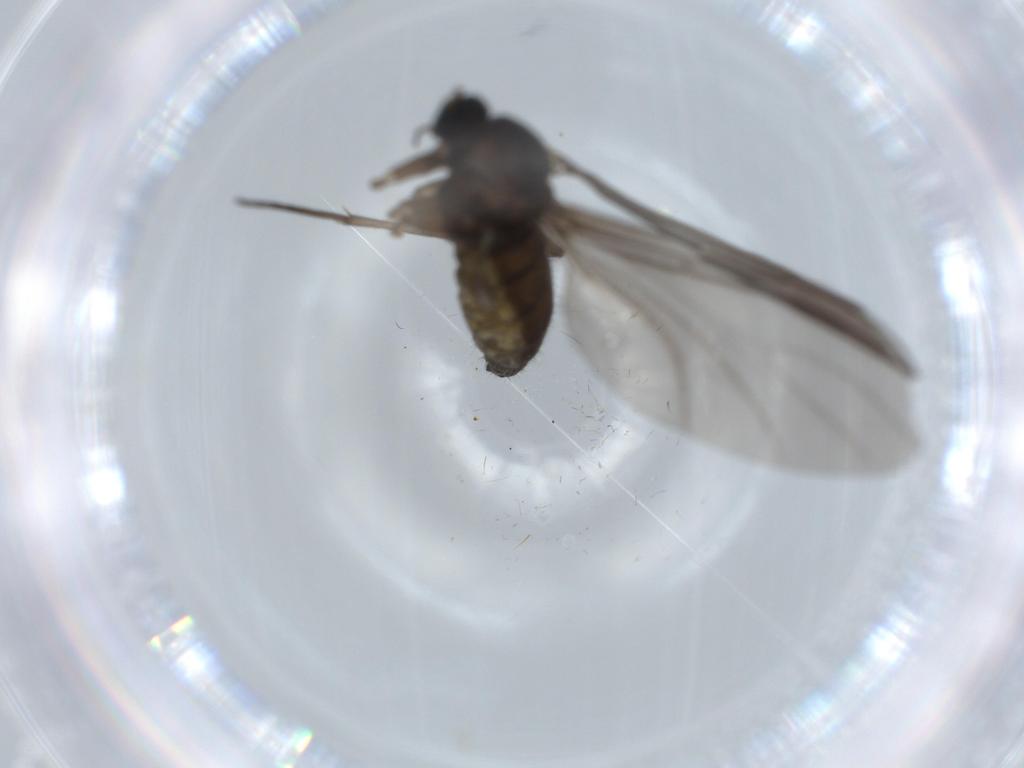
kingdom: Animalia
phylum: Arthropoda
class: Insecta
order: Diptera
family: Sciaridae
